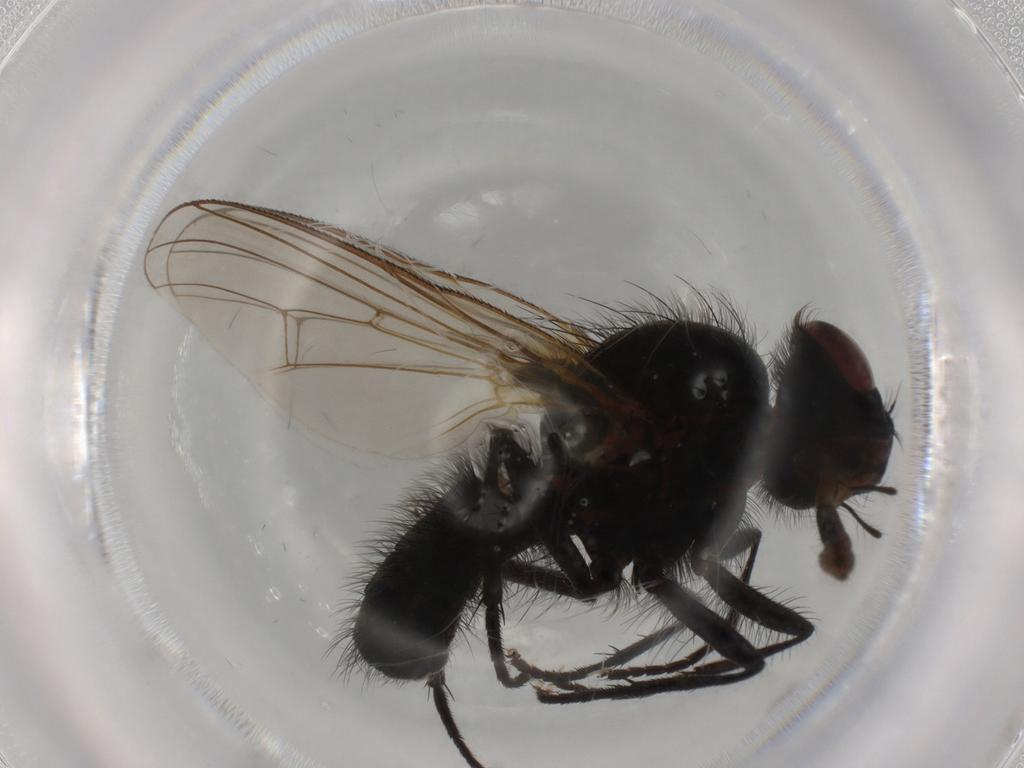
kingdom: Animalia
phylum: Arthropoda
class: Insecta
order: Diptera
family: Anthomyiidae
